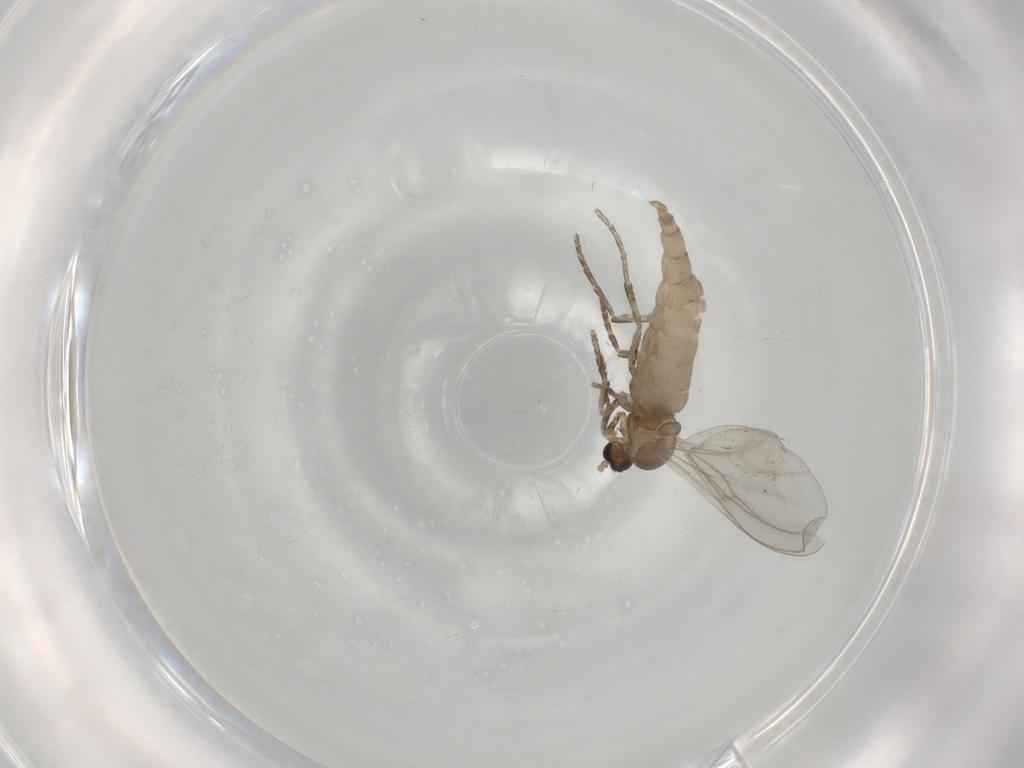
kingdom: Animalia
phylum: Arthropoda
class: Insecta
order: Diptera
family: Cecidomyiidae
